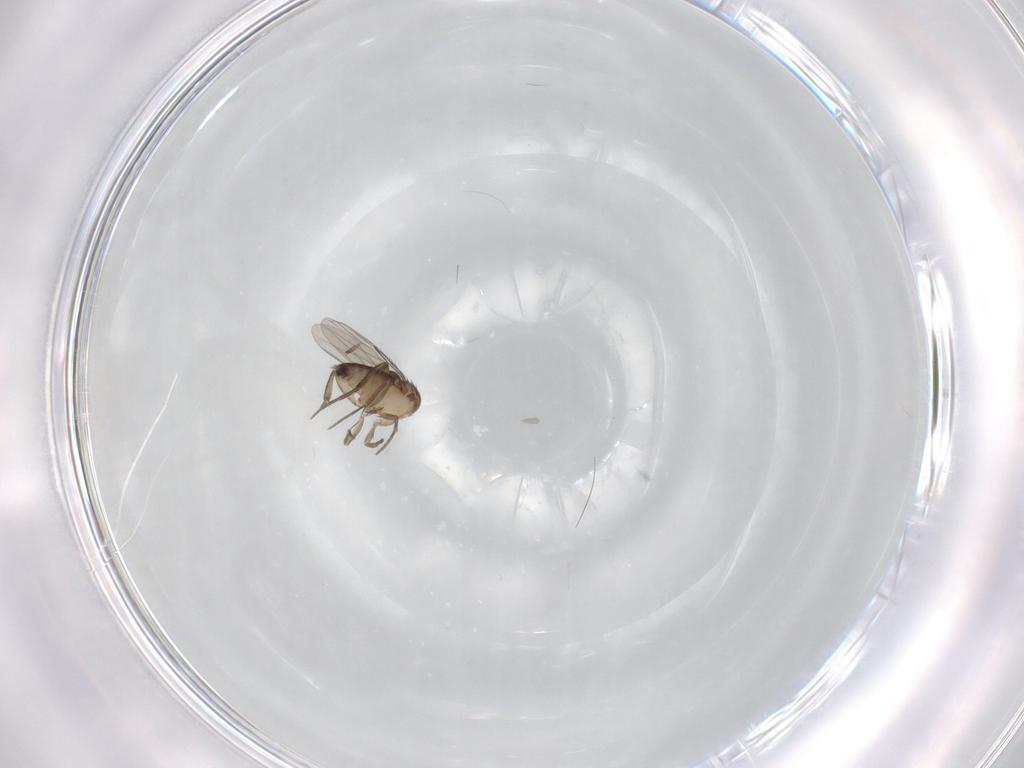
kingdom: Animalia
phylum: Arthropoda
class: Insecta
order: Diptera
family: Phoridae
